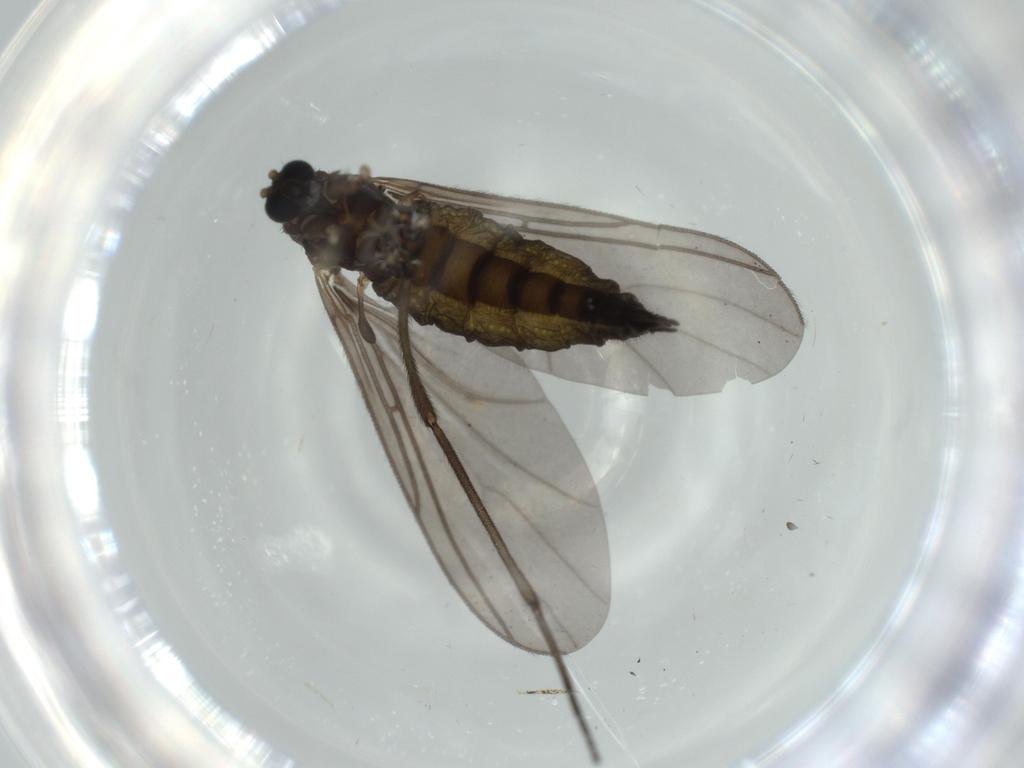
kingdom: Animalia
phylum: Arthropoda
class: Insecta
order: Diptera
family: Sciaridae
